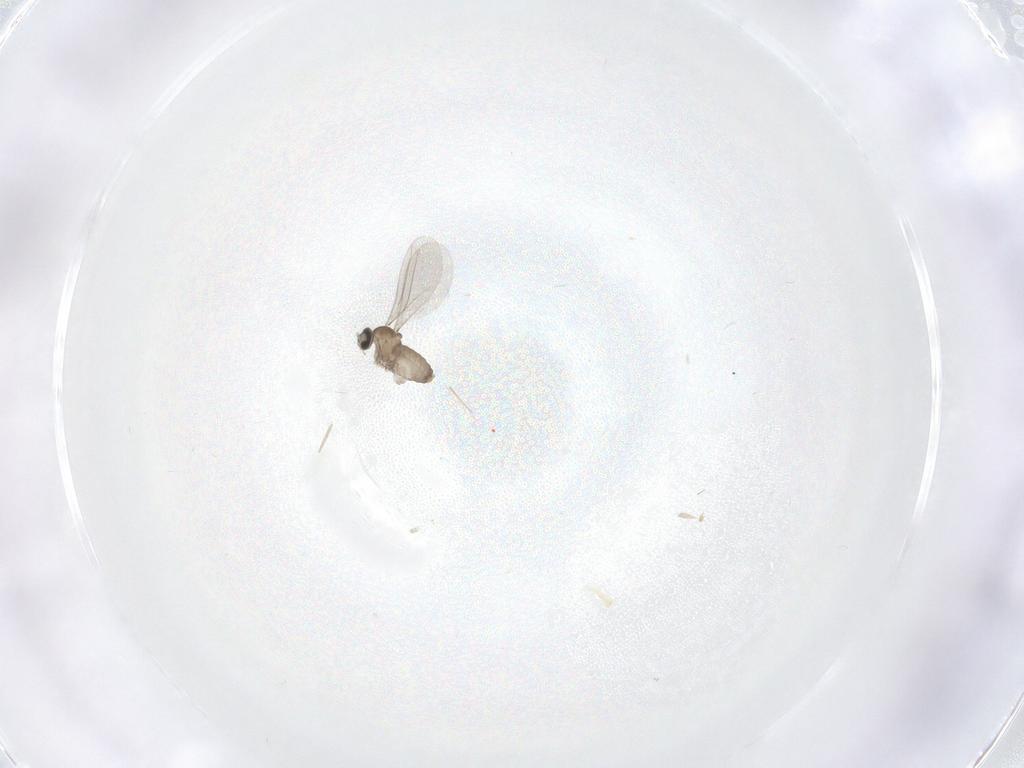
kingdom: Animalia
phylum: Arthropoda
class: Insecta
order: Diptera
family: Cecidomyiidae
